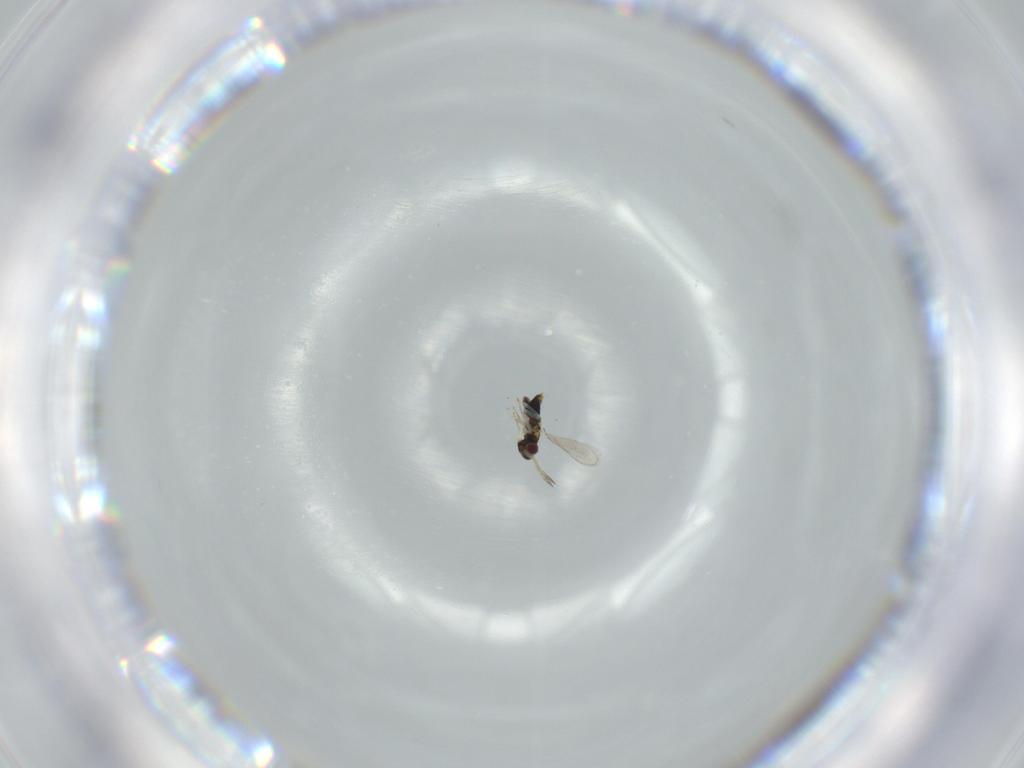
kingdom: Animalia
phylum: Arthropoda
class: Insecta
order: Hymenoptera
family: Aphelinidae
